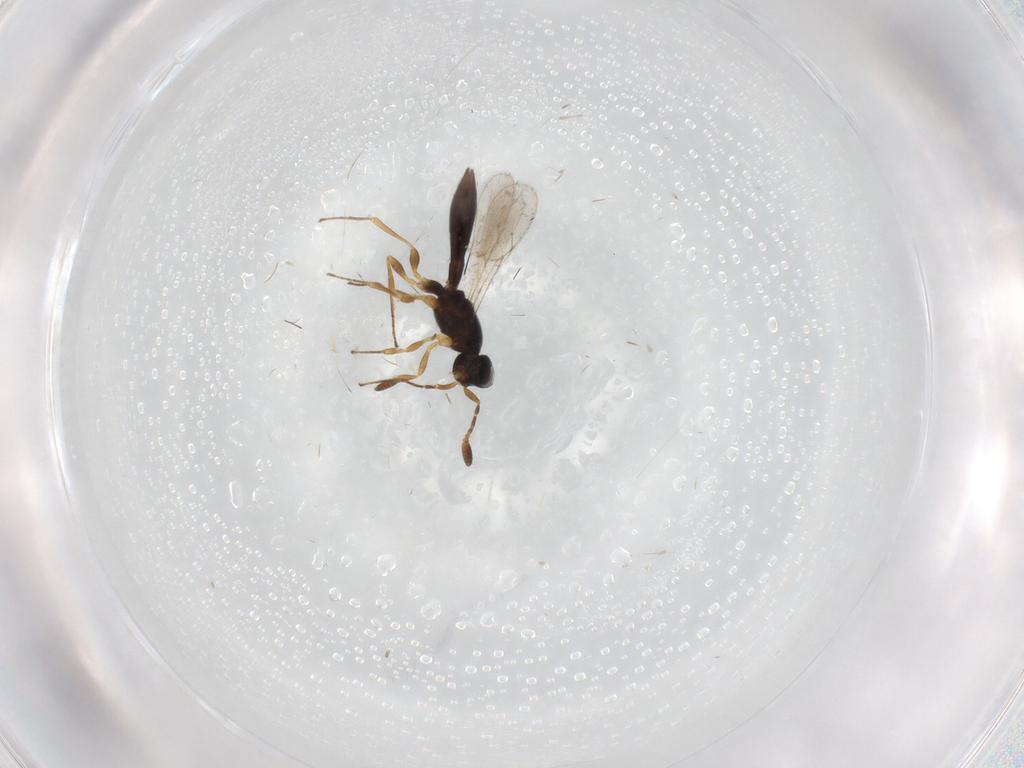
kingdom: Animalia
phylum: Arthropoda
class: Insecta
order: Hymenoptera
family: Scelionidae
